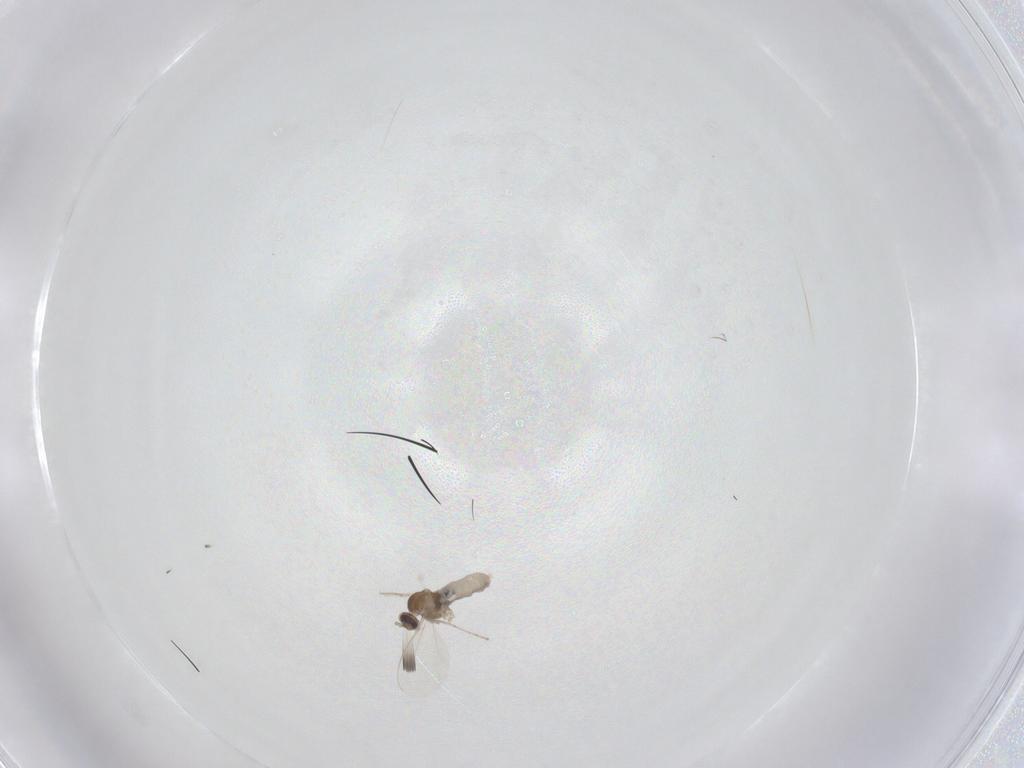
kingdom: Animalia
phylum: Arthropoda
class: Insecta
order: Diptera
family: Cecidomyiidae
